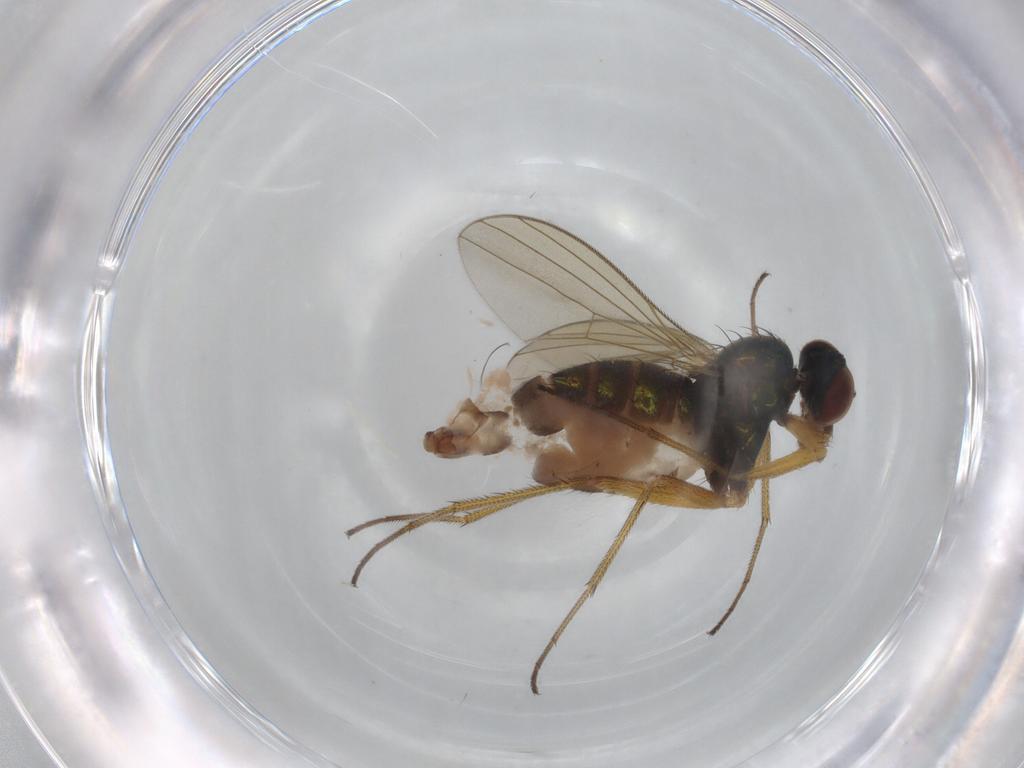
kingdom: Animalia
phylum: Arthropoda
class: Insecta
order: Diptera
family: Dolichopodidae
